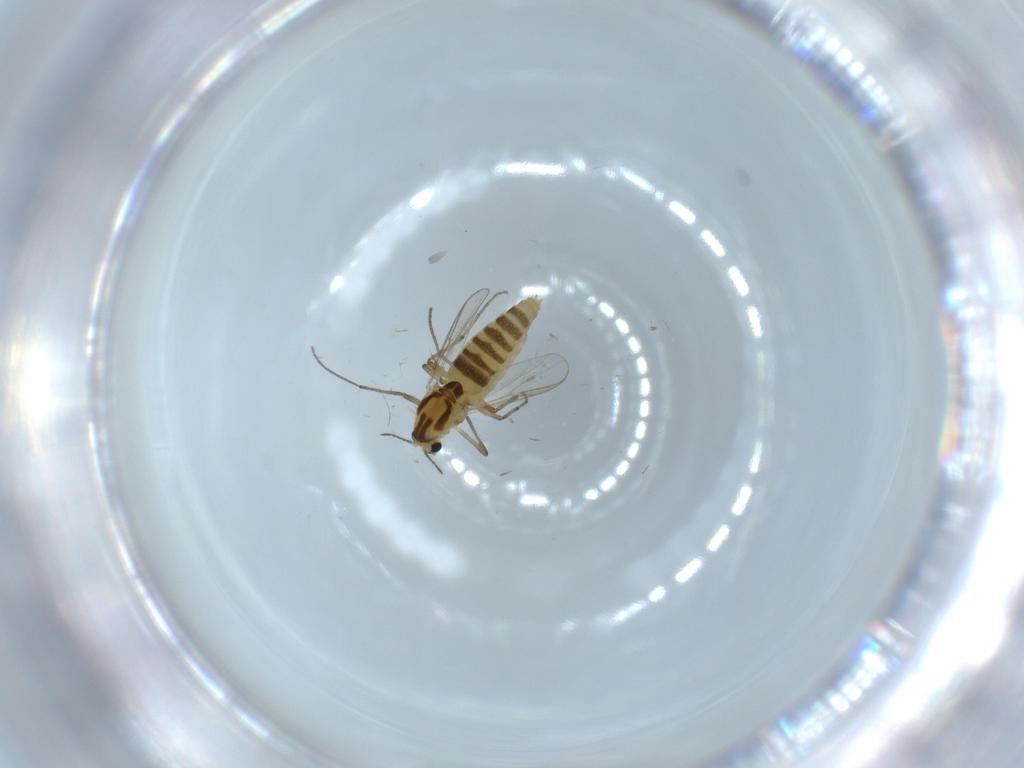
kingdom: Animalia
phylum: Arthropoda
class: Insecta
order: Diptera
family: Chironomidae
